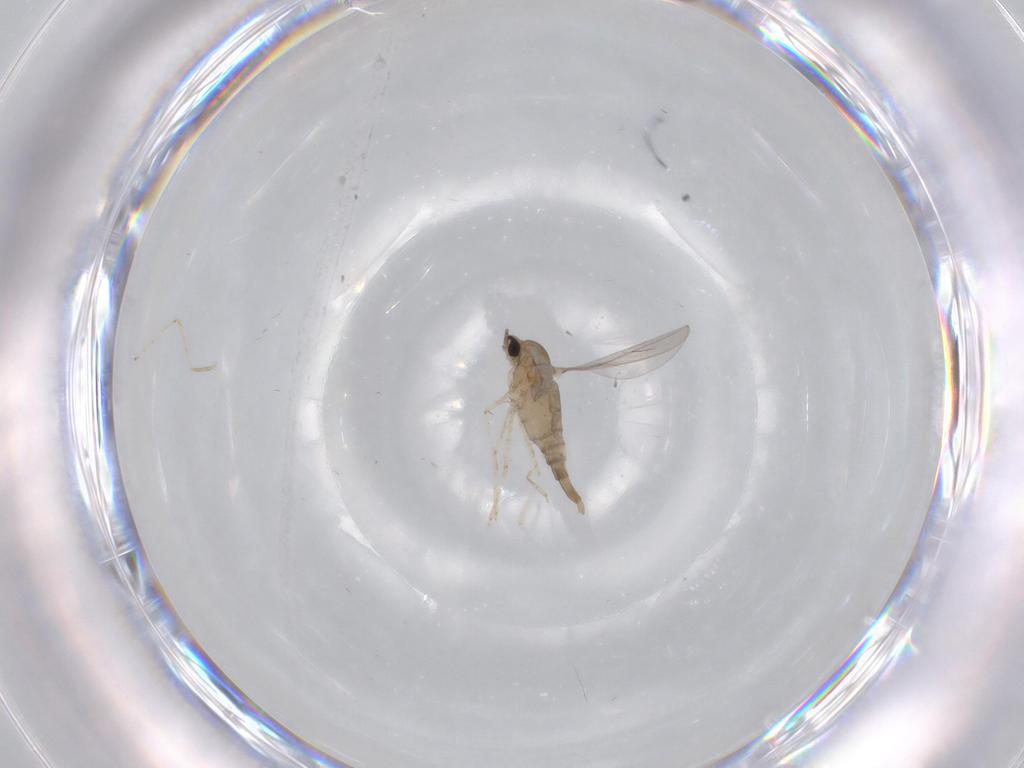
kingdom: Animalia
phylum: Arthropoda
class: Insecta
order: Diptera
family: Cecidomyiidae
